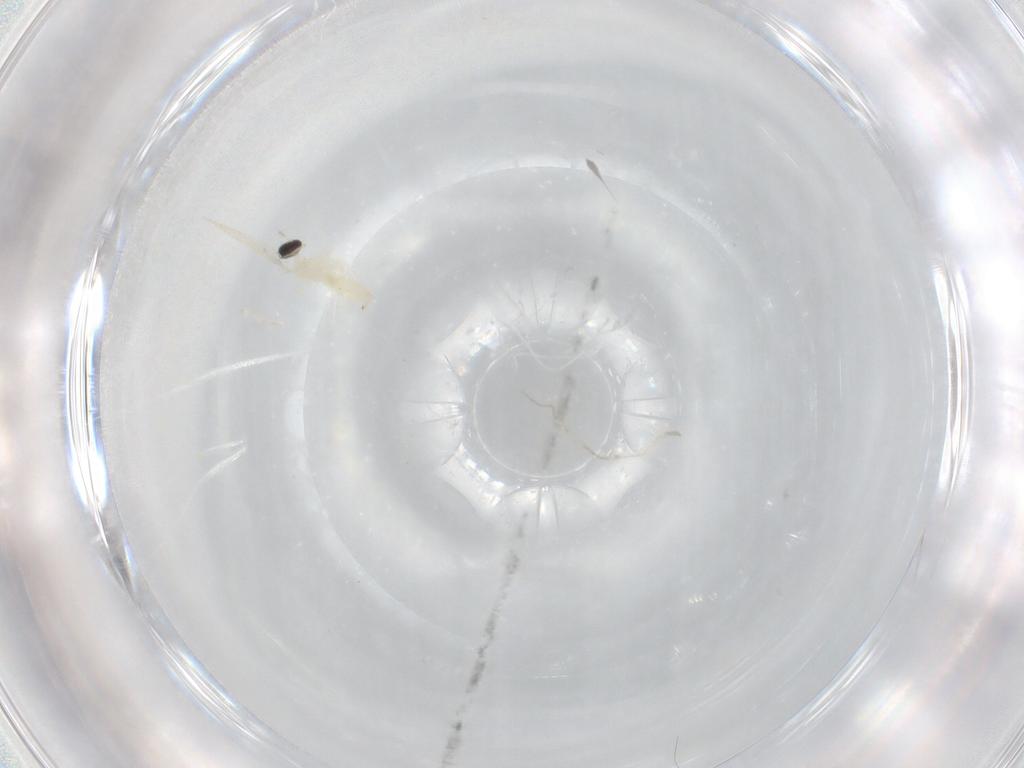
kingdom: Animalia
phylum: Arthropoda
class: Insecta
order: Diptera
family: Cecidomyiidae
